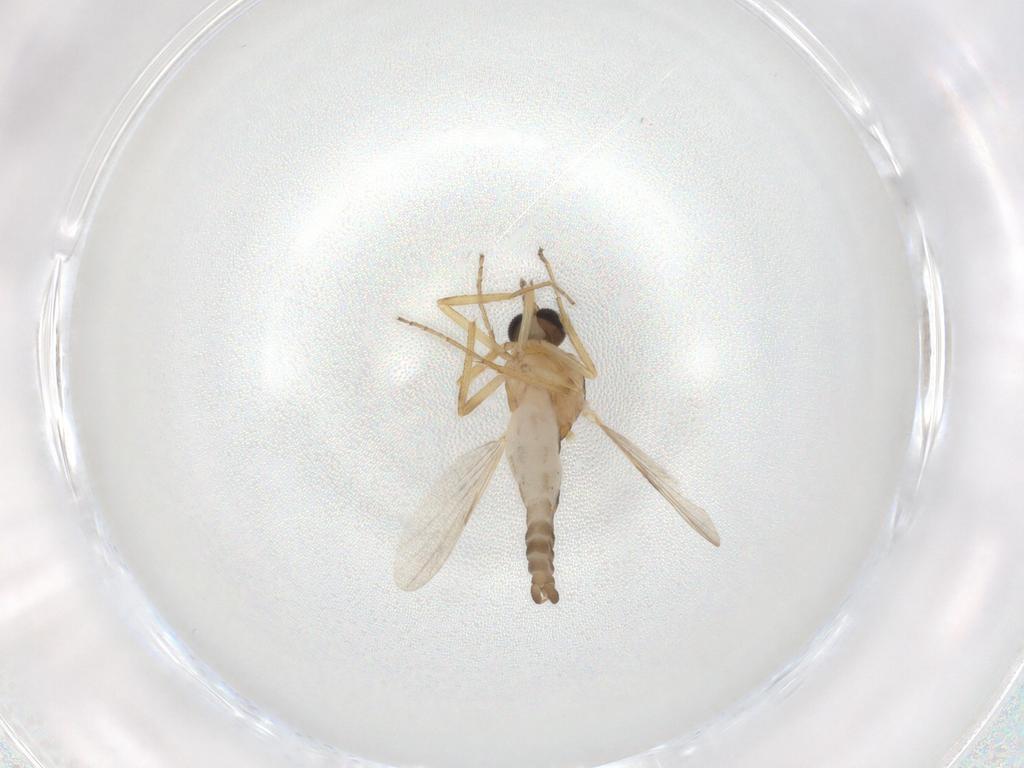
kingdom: Animalia
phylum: Arthropoda
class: Insecta
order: Diptera
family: Chironomidae
